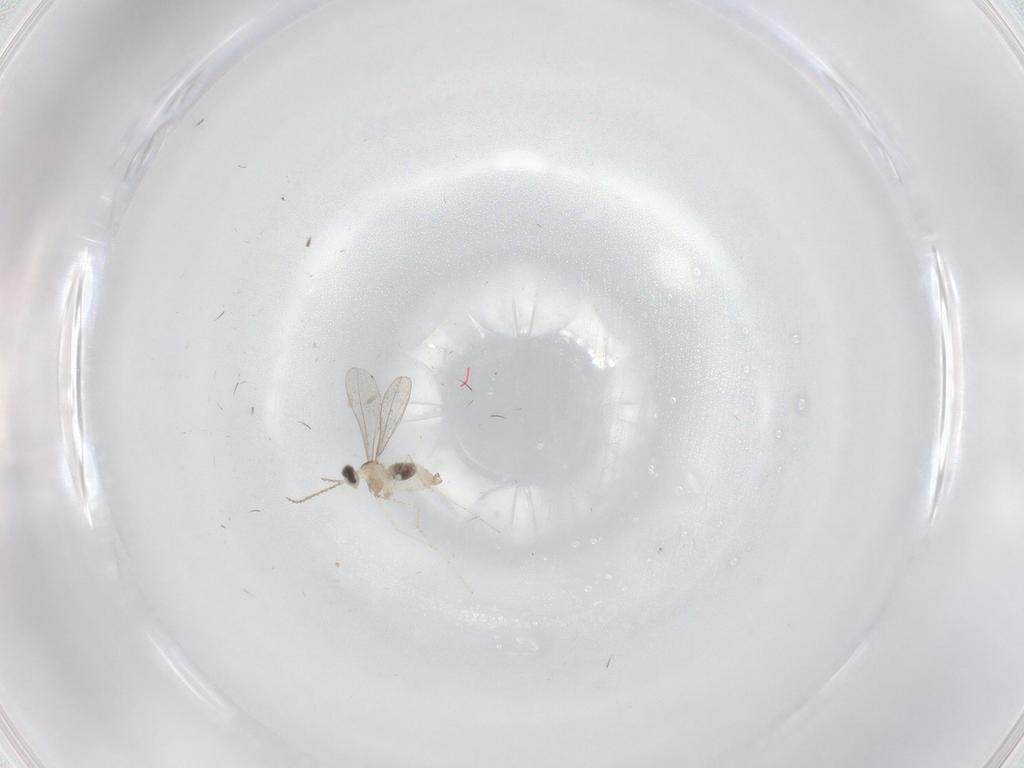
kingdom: Animalia
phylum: Arthropoda
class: Insecta
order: Diptera
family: Cecidomyiidae
